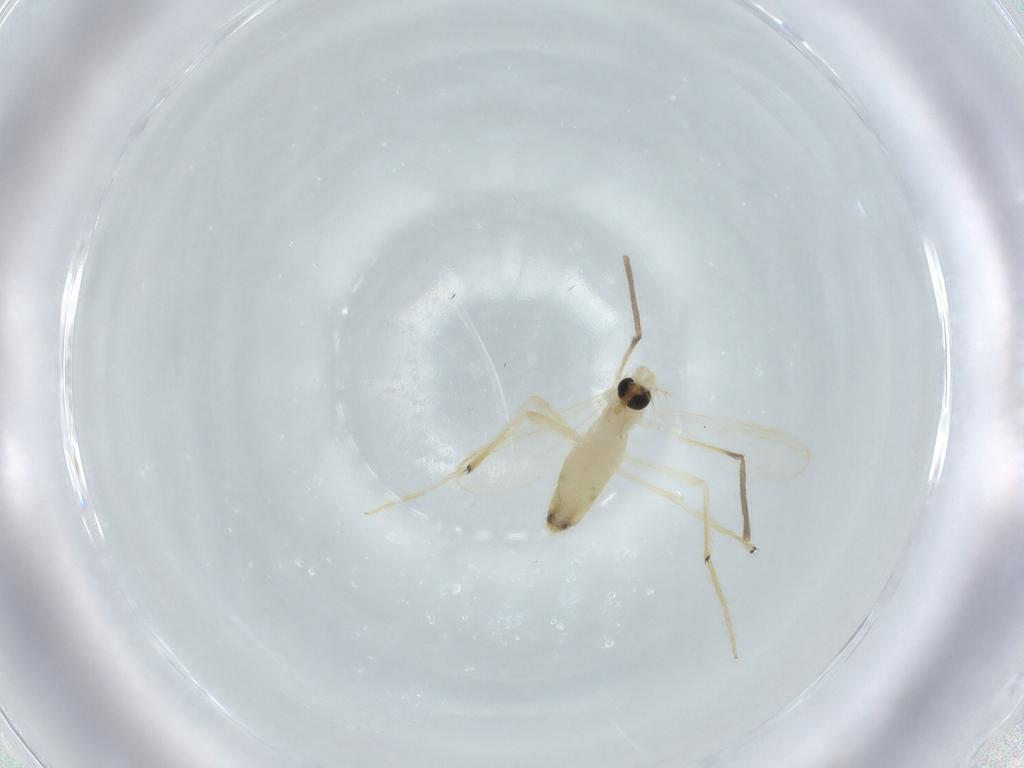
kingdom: Animalia
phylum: Arthropoda
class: Insecta
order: Diptera
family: Chironomidae
